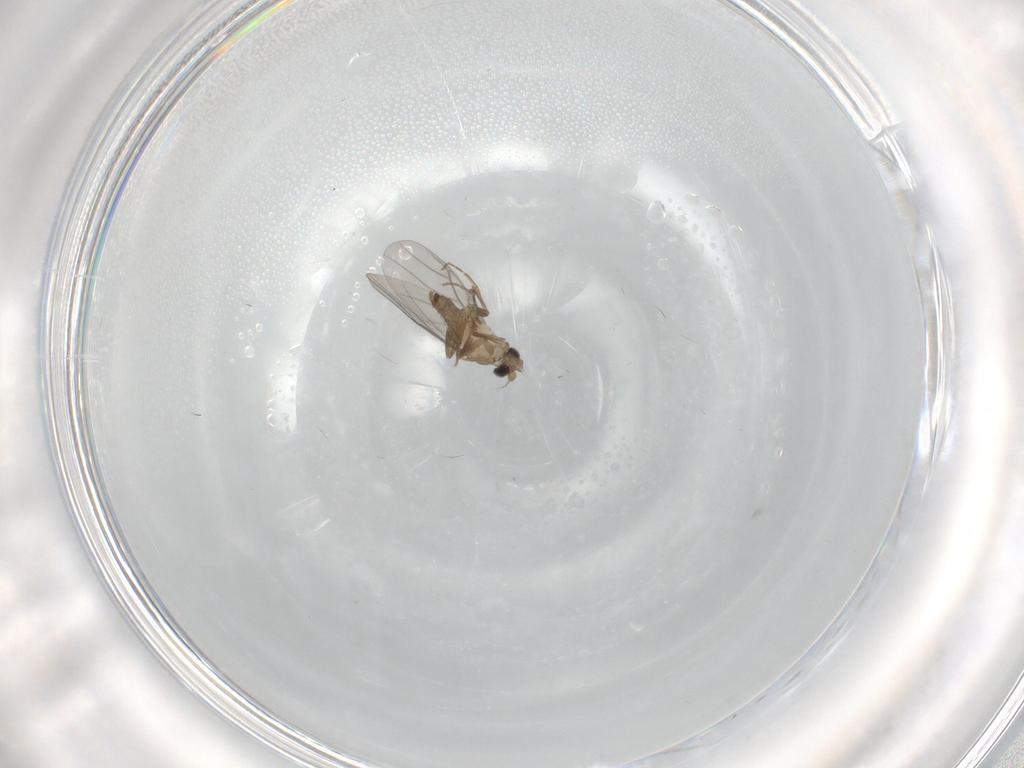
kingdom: Animalia
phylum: Arthropoda
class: Insecta
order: Diptera
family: Phoridae
